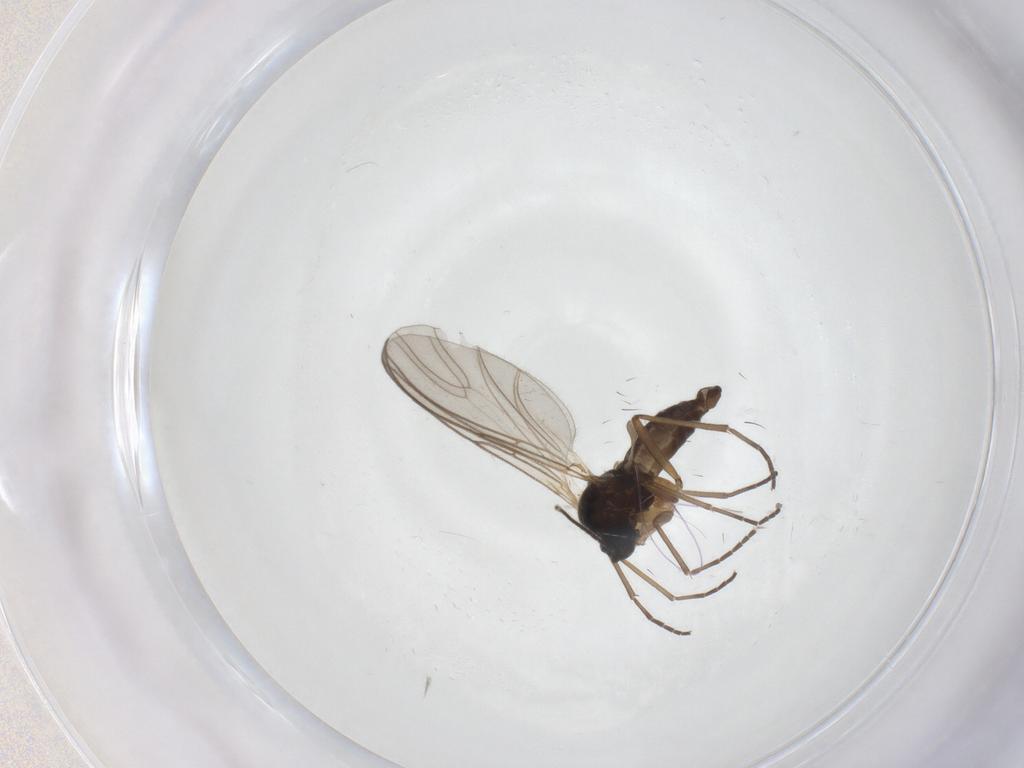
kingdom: Animalia
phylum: Arthropoda
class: Insecta
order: Diptera
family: Sciaridae
